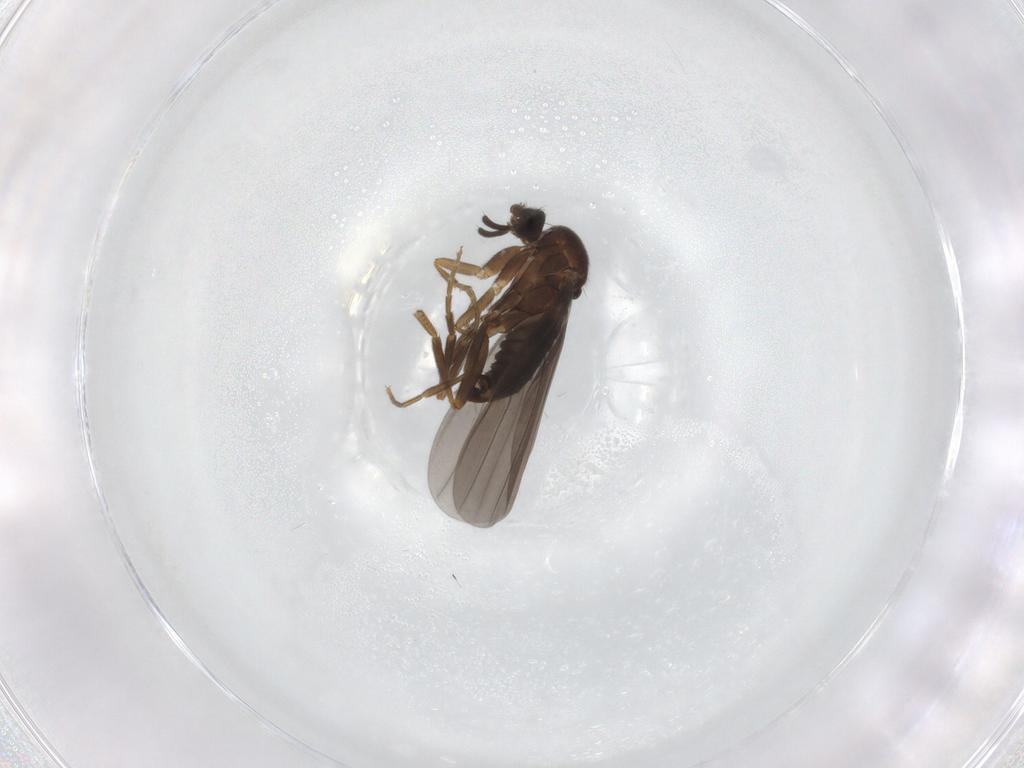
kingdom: Animalia
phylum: Arthropoda
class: Insecta
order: Diptera
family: Phoridae
